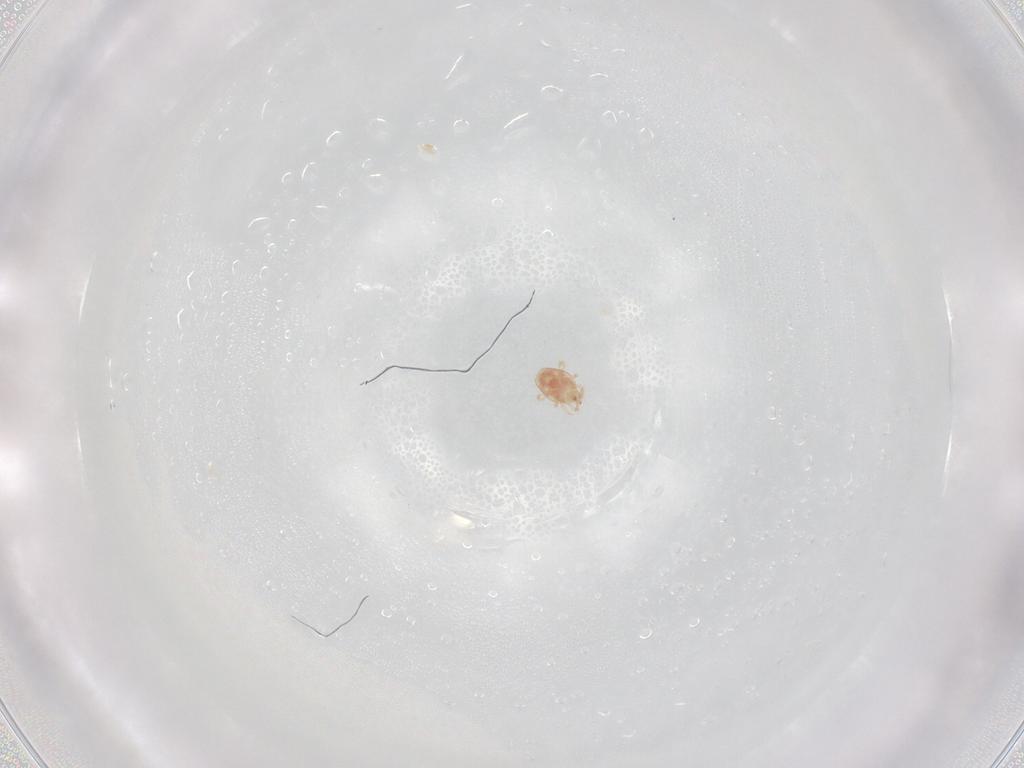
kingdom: Animalia
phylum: Arthropoda
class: Arachnida
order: Mesostigmata
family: Phytoseiidae
